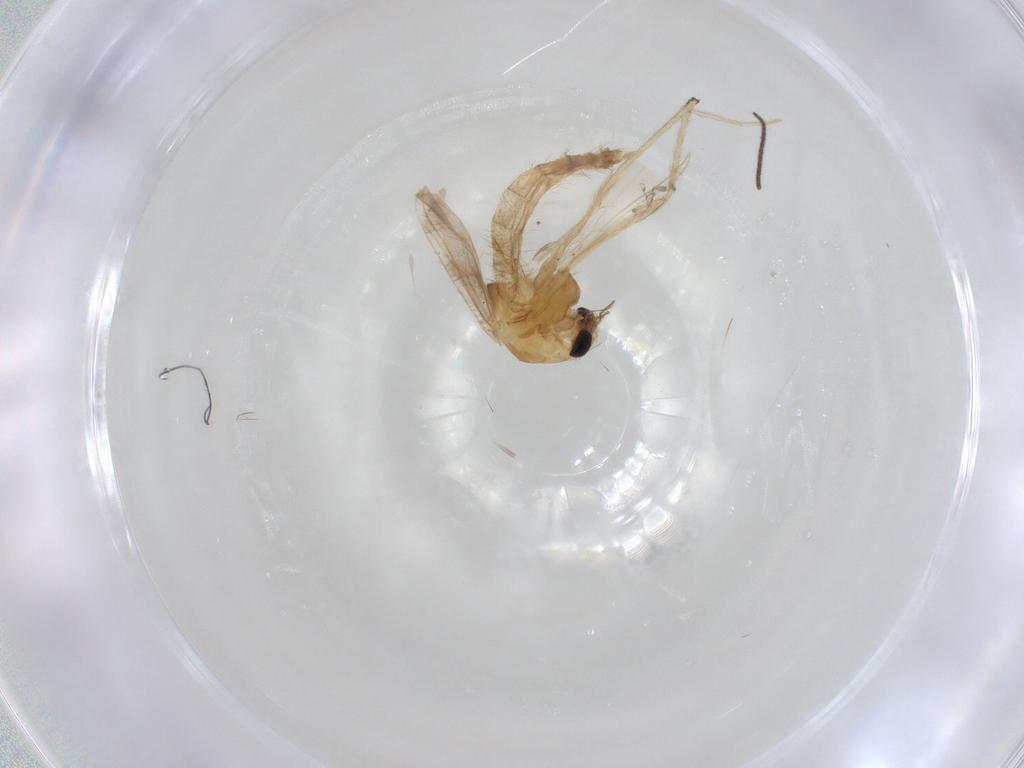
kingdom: Animalia
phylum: Arthropoda
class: Insecta
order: Diptera
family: Chironomidae
